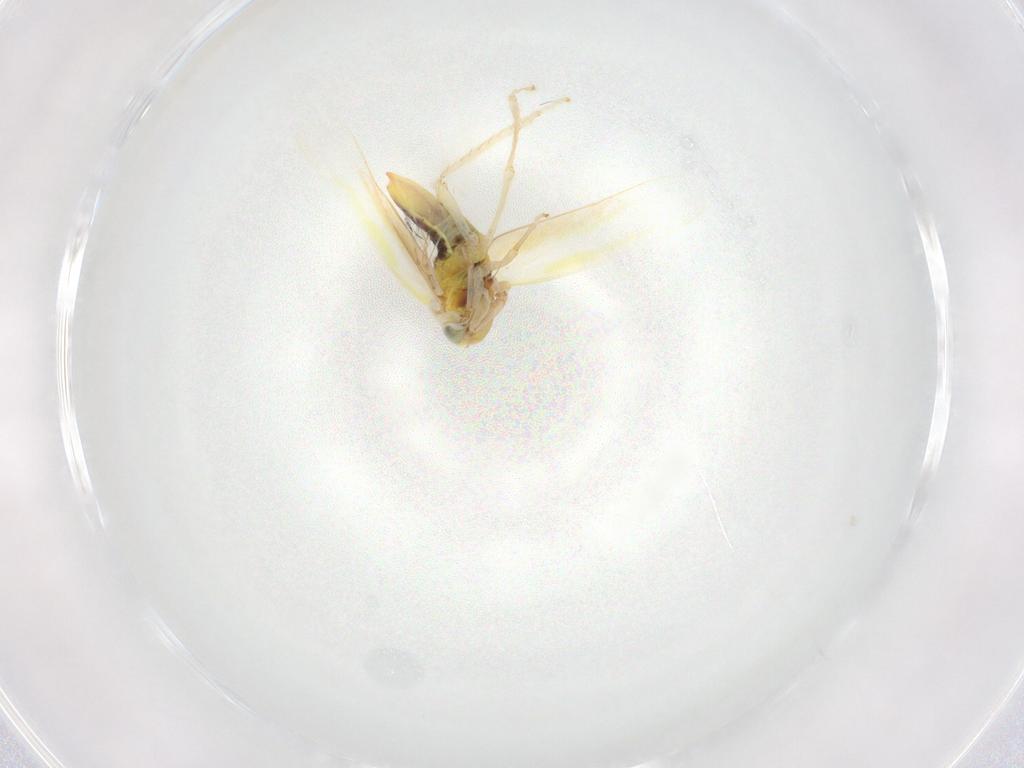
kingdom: Animalia
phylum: Arthropoda
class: Insecta
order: Hemiptera
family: Cicadellidae
